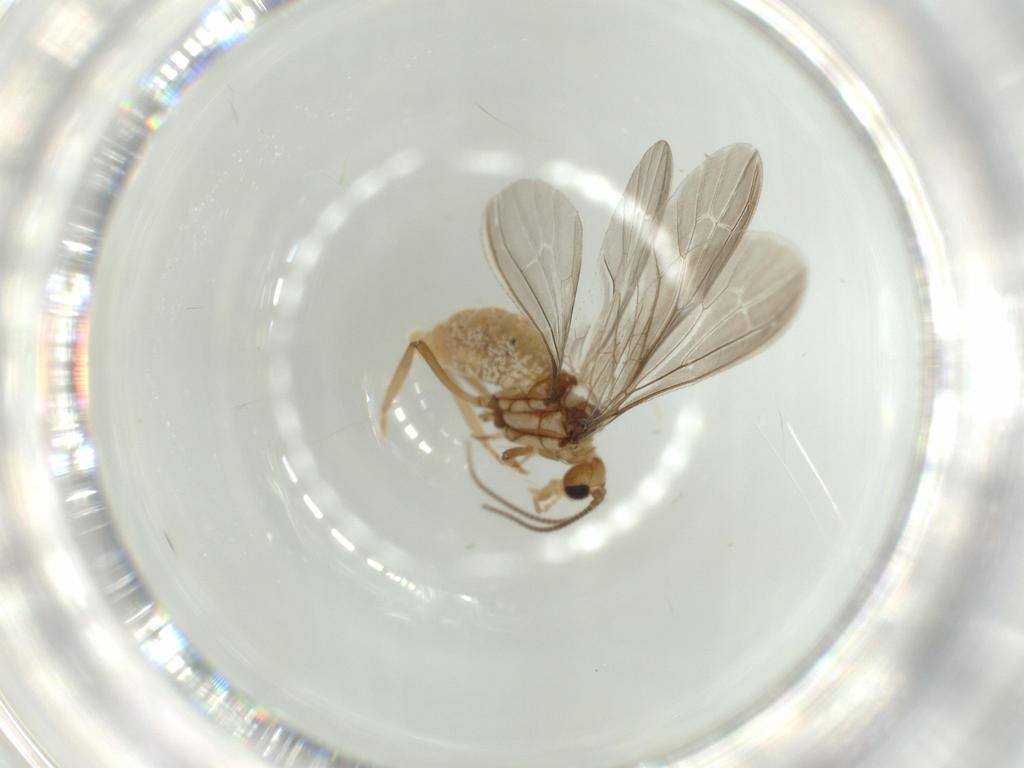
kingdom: Animalia
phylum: Arthropoda
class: Insecta
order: Neuroptera
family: Coniopterygidae
